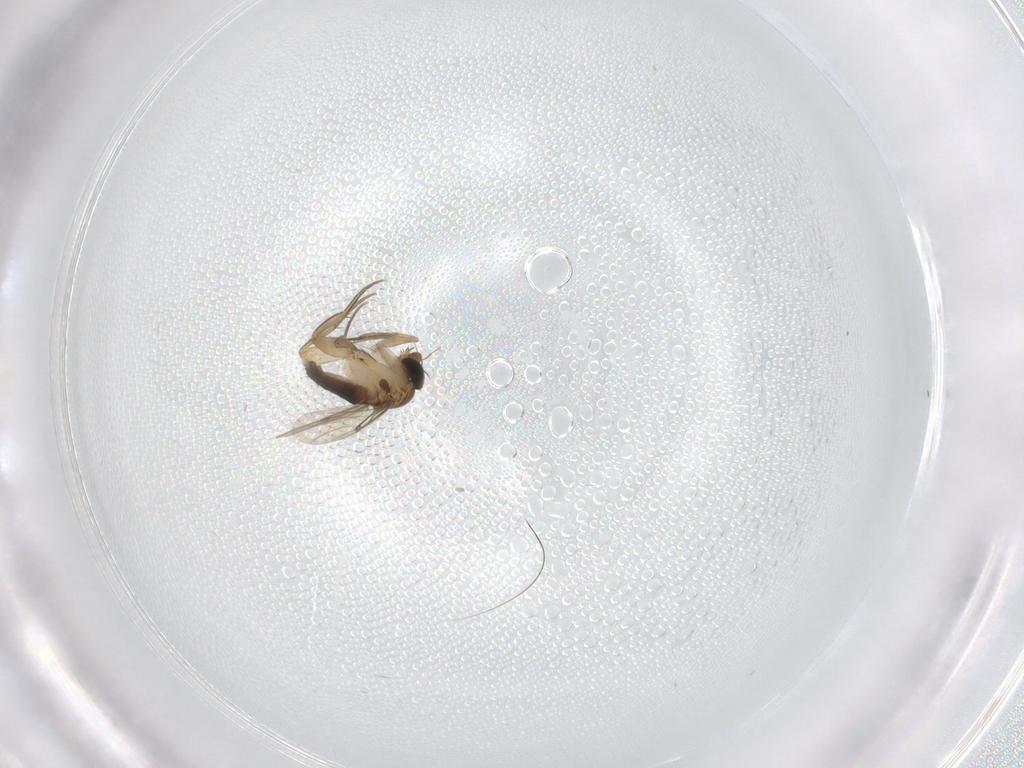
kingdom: Animalia
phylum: Arthropoda
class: Insecta
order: Diptera
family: Phoridae
